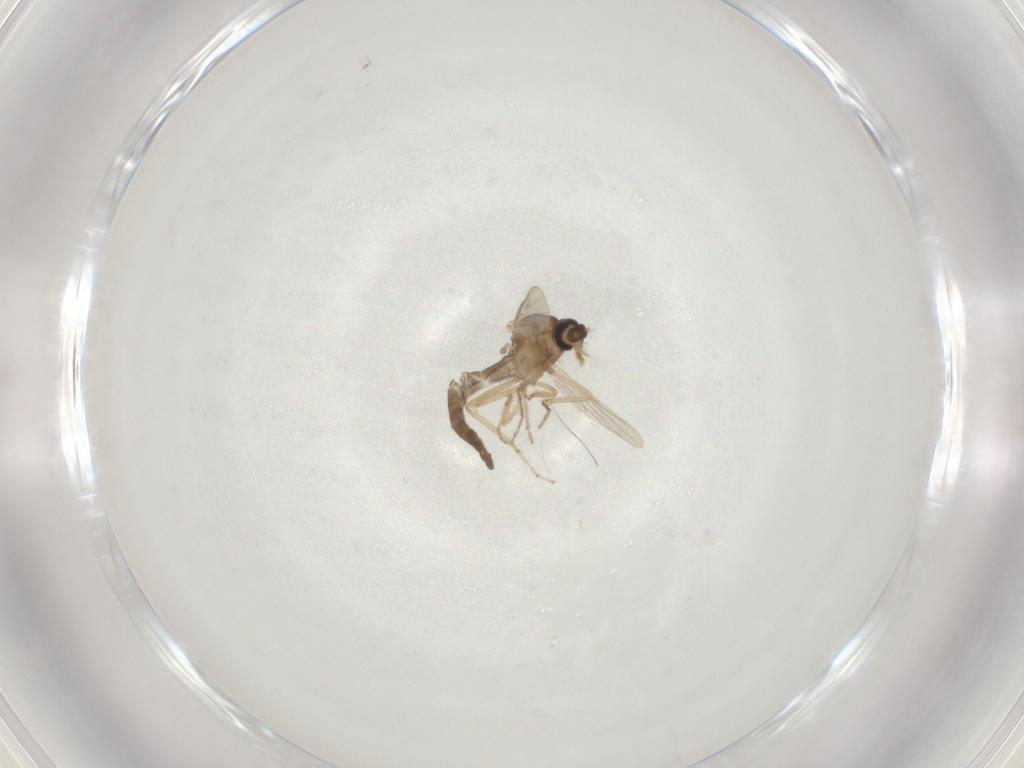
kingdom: Animalia
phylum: Arthropoda
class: Insecta
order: Diptera
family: Ceratopogonidae
